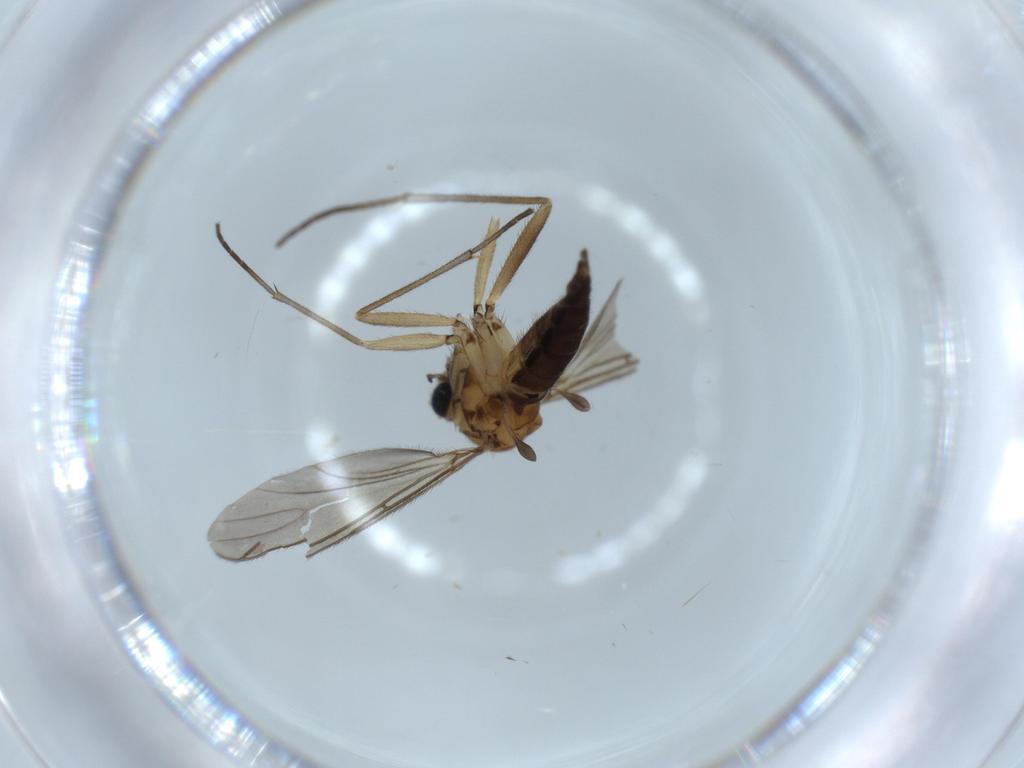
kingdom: Animalia
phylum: Arthropoda
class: Insecta
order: Diptera
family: Sciaridae
